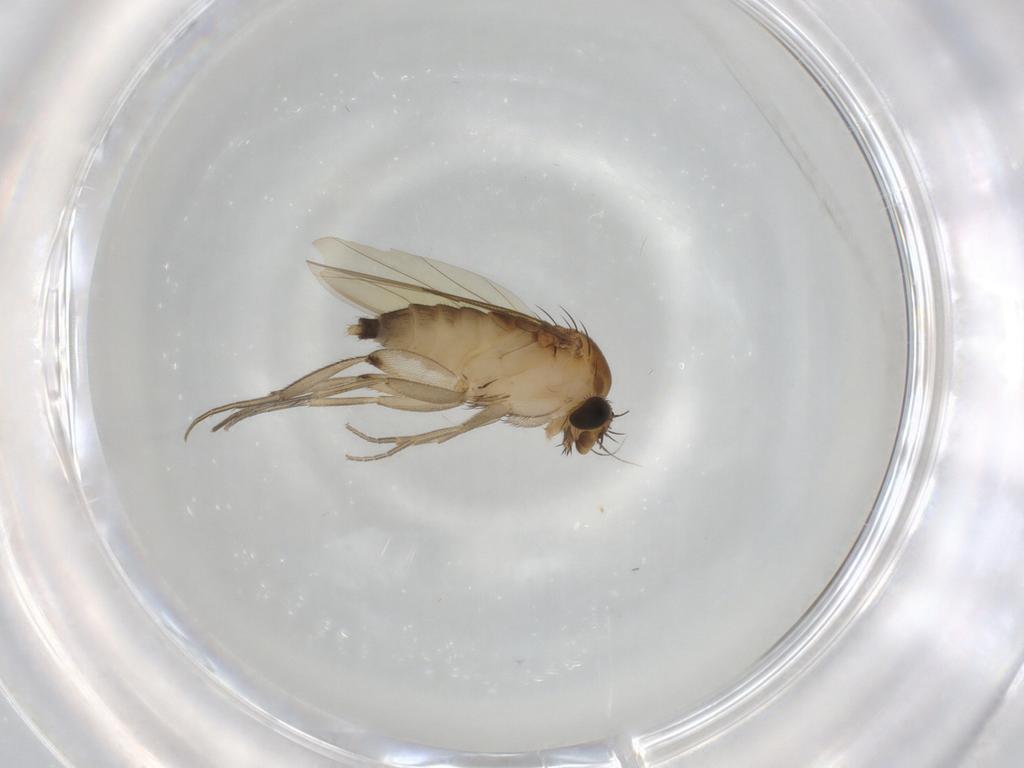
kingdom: Animalia
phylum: Arthropoda
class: Insecta
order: Diptera
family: Phoridae
